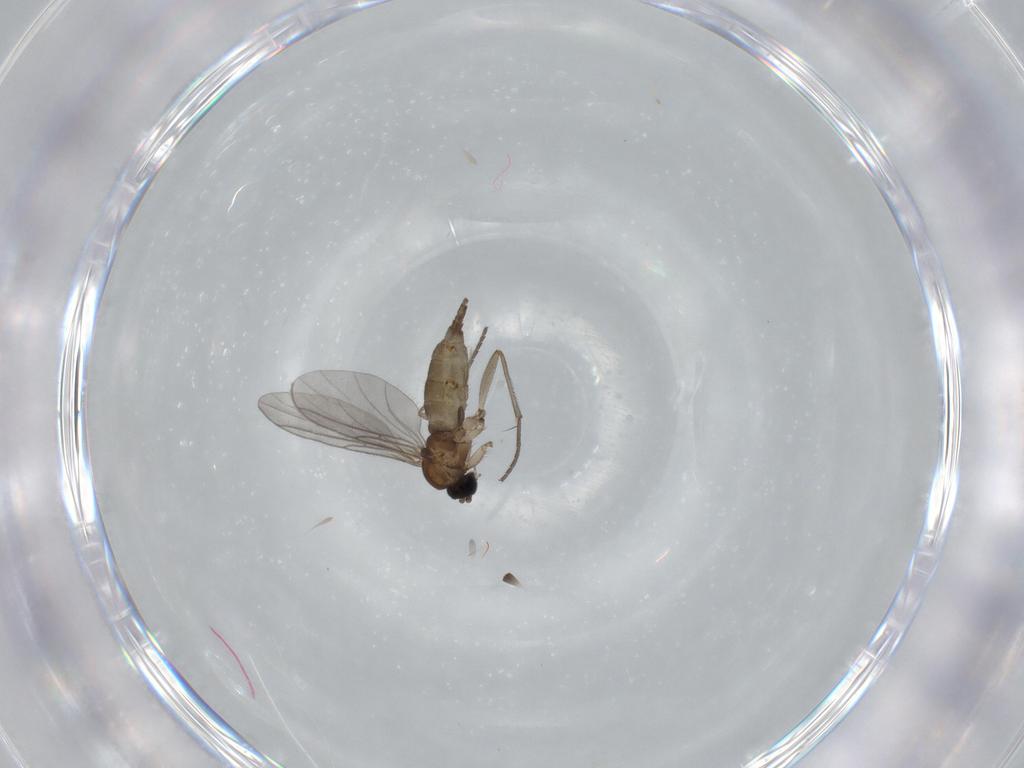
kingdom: Animalia
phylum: Arthropoda
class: Insecta
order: Diptera
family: Sciaridae
